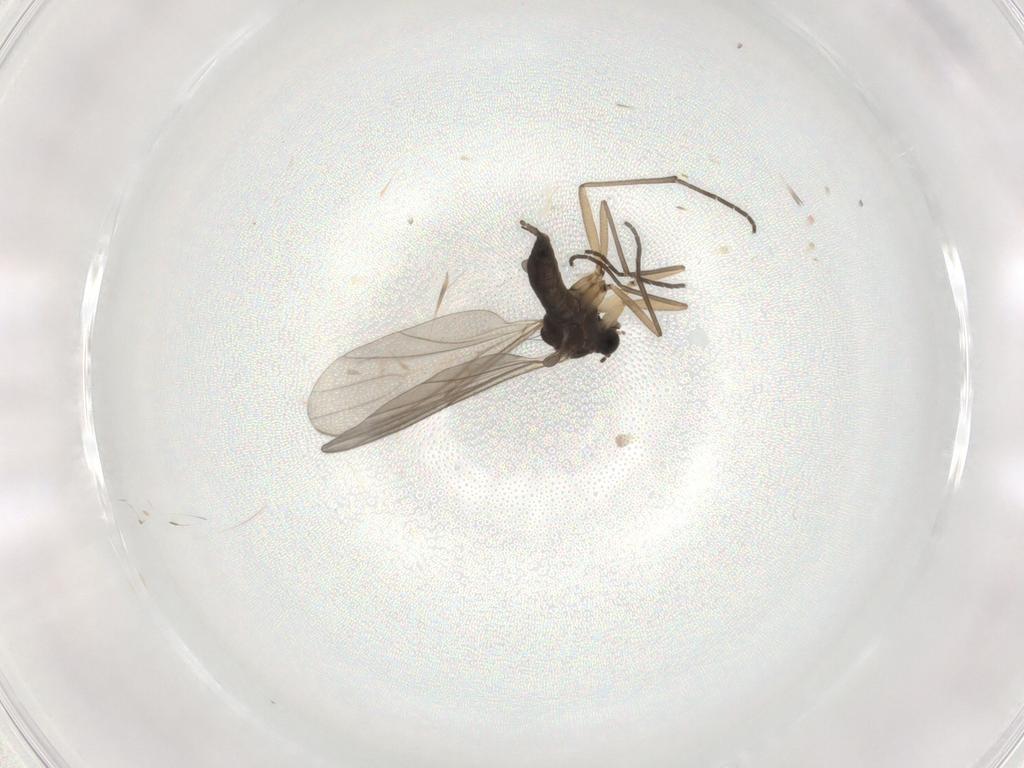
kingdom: Animalia
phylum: Arthropoda
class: Insecta
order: Diptera
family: Sciaridae
